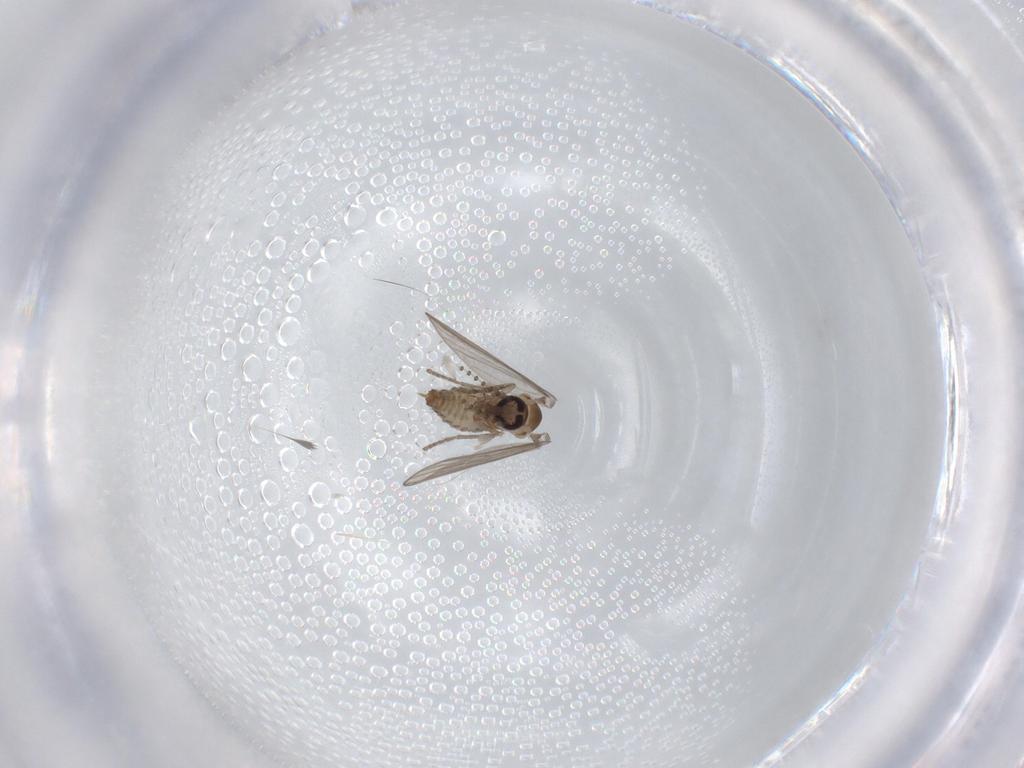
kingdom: Animalia
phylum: Arthropoda
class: Insecta
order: Diptera
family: Psychodidae
